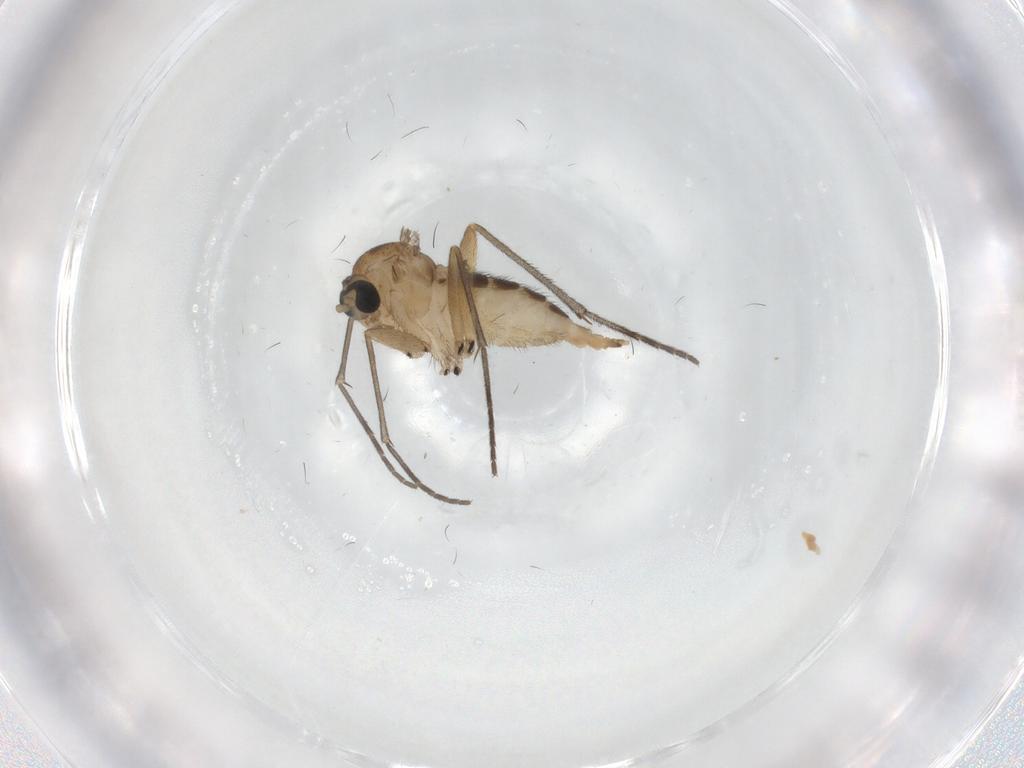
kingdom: Animalia
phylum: Arthropoda
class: Insecta
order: Diptera
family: Sciaridae
